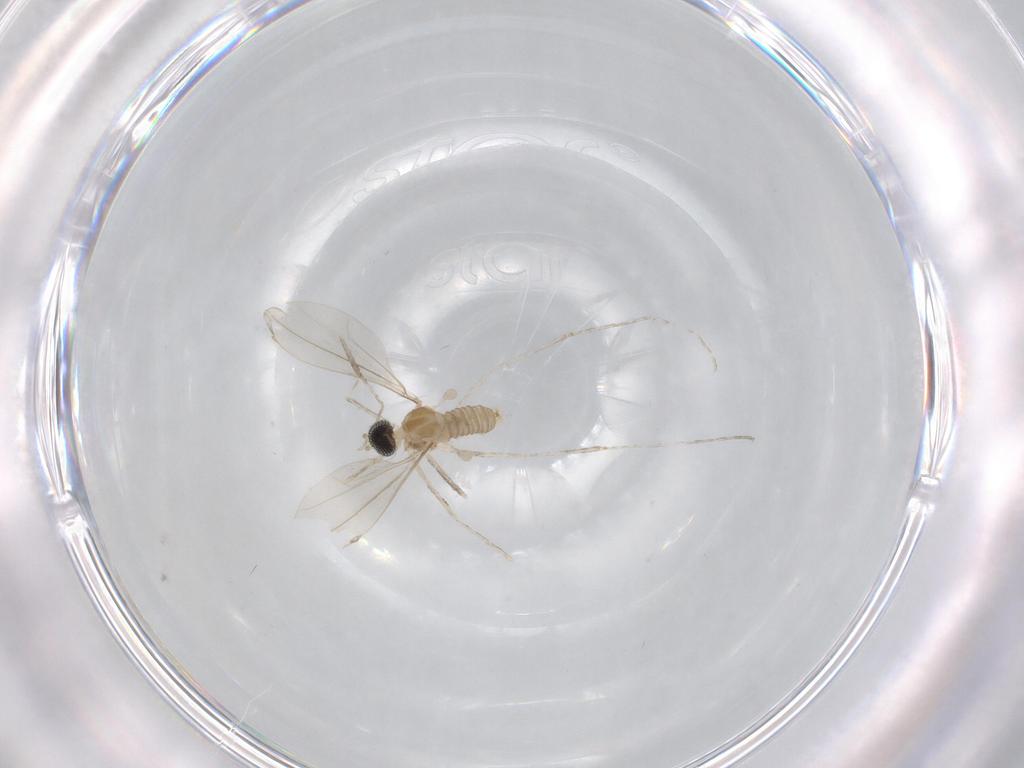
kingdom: Animalia
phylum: Arthropoda
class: Insecta
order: Diptera
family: Cecidomyiidae
